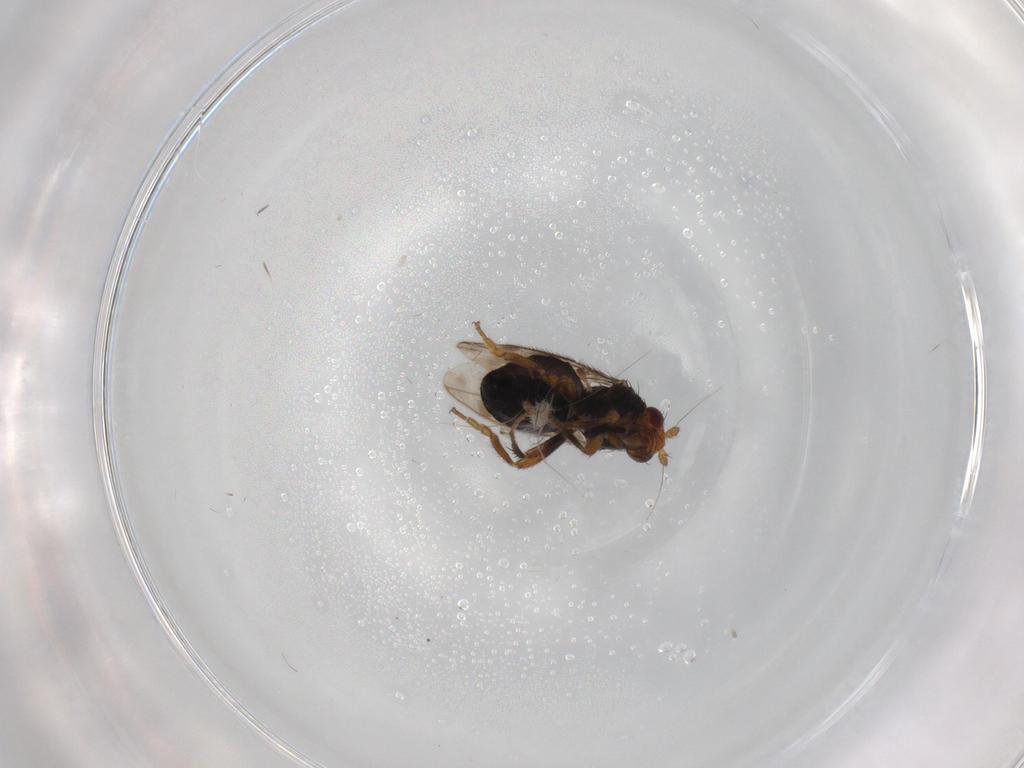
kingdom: Animalia
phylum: Arthropoda
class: Insecta
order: Diptera
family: Sphaeroceridae
